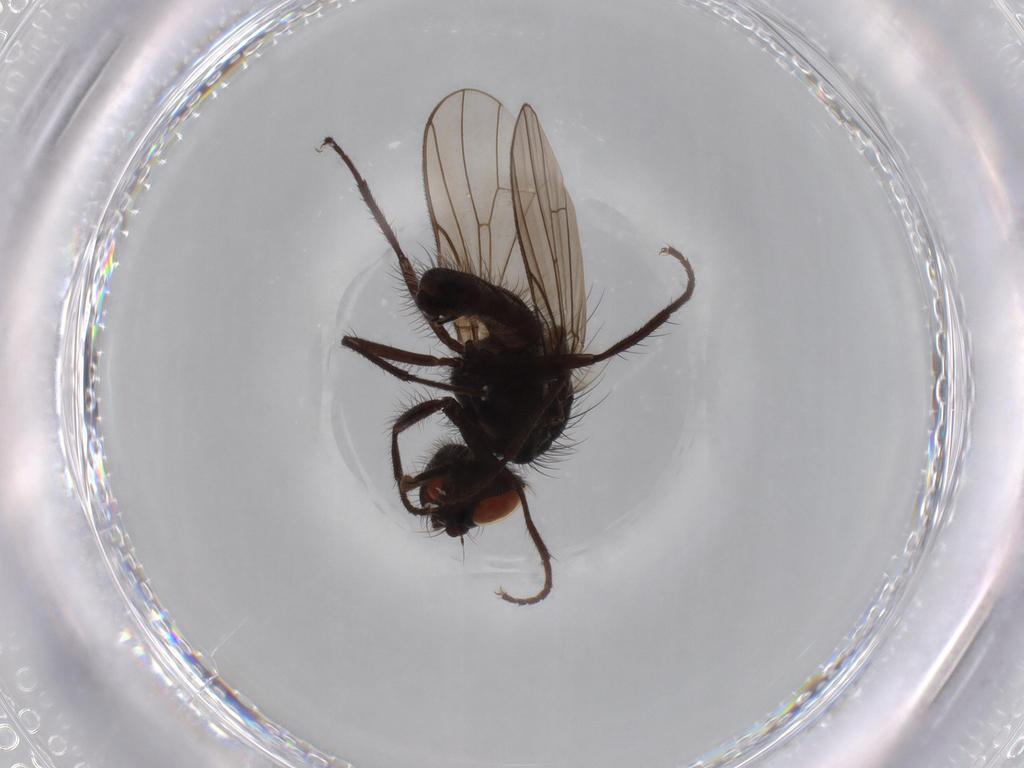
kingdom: Animalia
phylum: Arthropoda
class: Insecta
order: Diptera
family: Anthomyiidae
